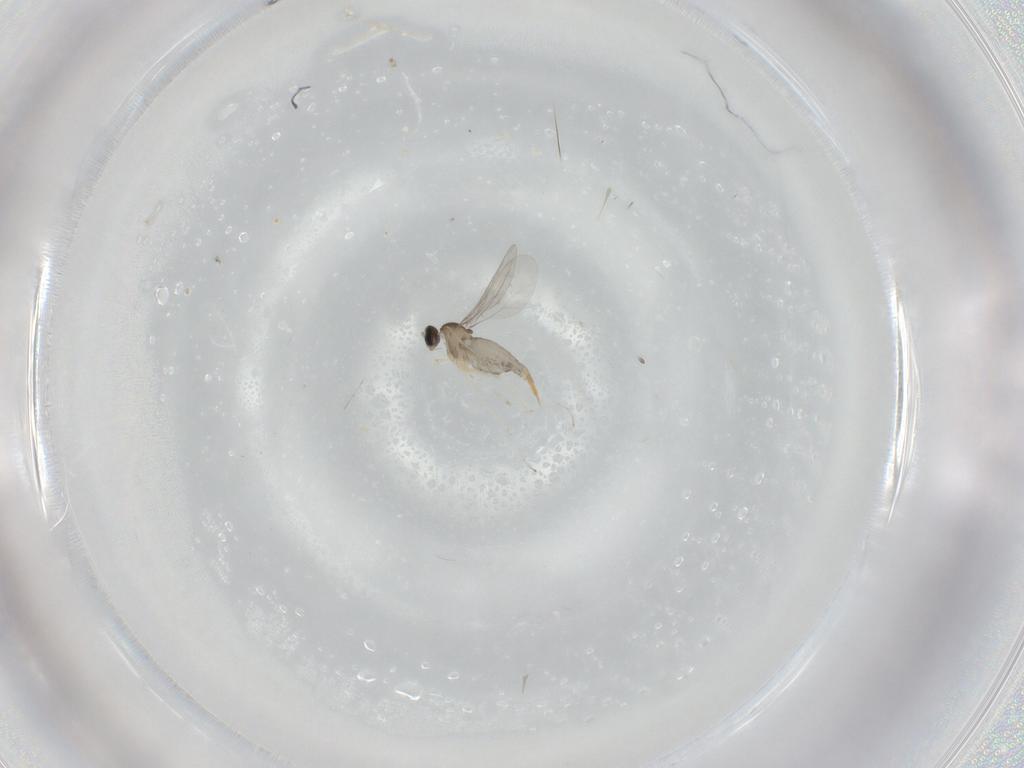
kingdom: Animalia
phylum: Arthropoda
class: Insecta
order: Diptera
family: Cecidomyiidae
